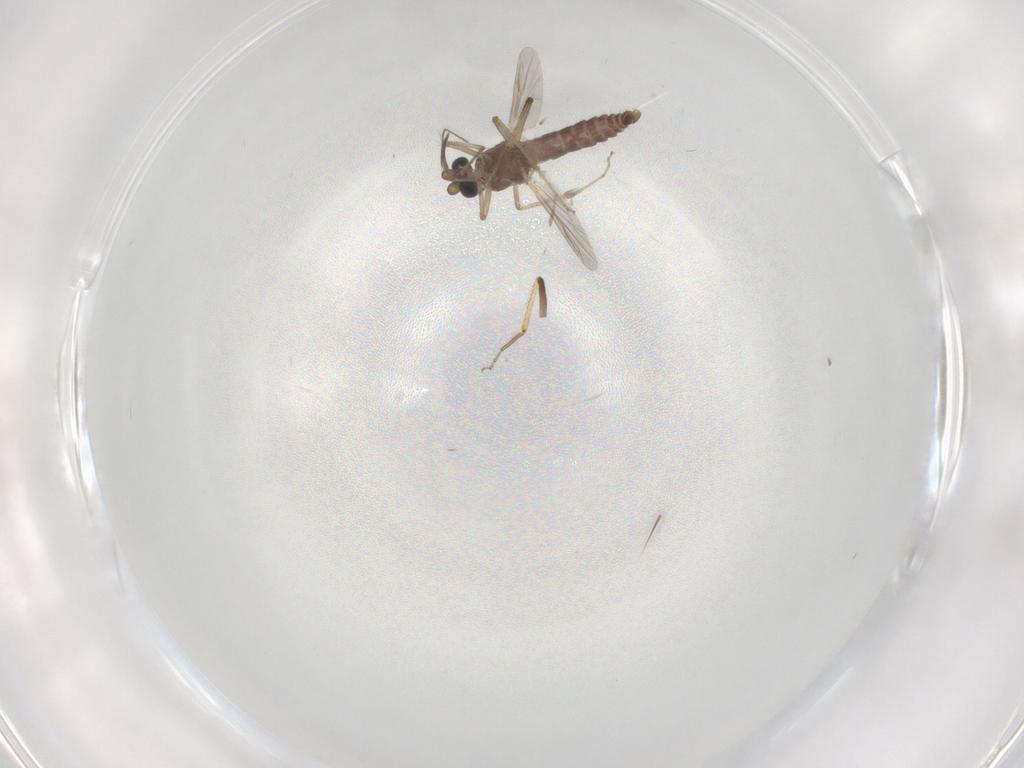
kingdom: Animalia
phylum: Arthropoda
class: Insecta
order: Diptera
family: Ceratopogonidae
